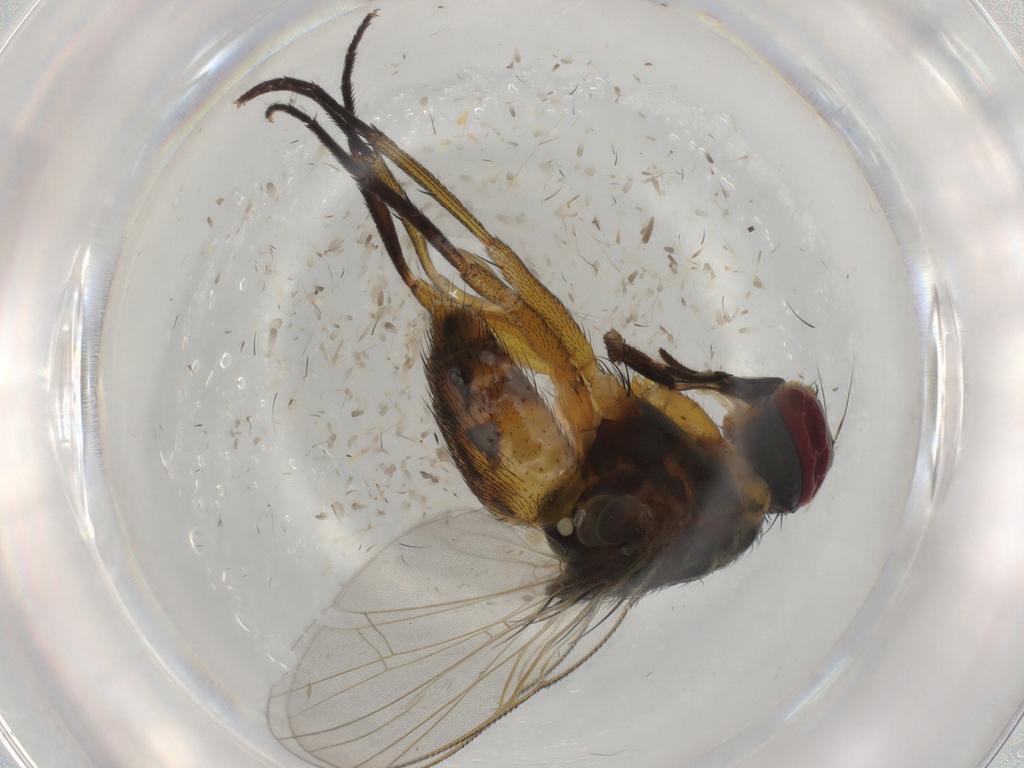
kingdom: Animalia
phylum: Arthropoda
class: Insecta
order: Diptera
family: Muscidae
